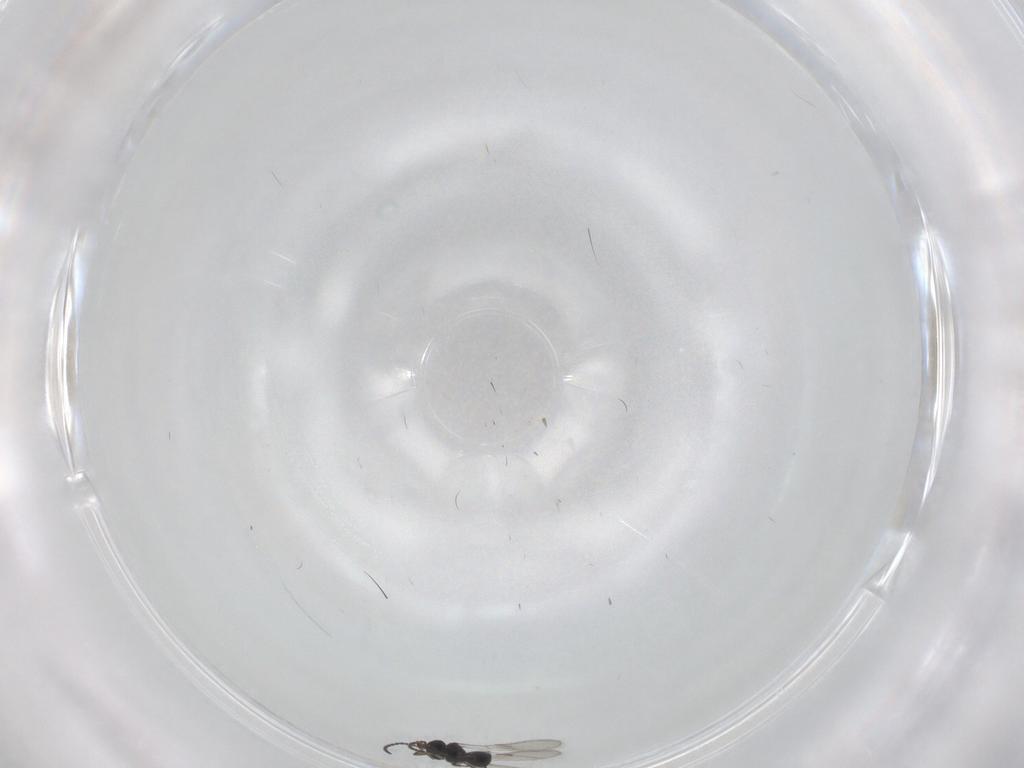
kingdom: Animalia
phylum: Arthropoda
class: Insecta
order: Hymenoptera
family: Scelionidae
